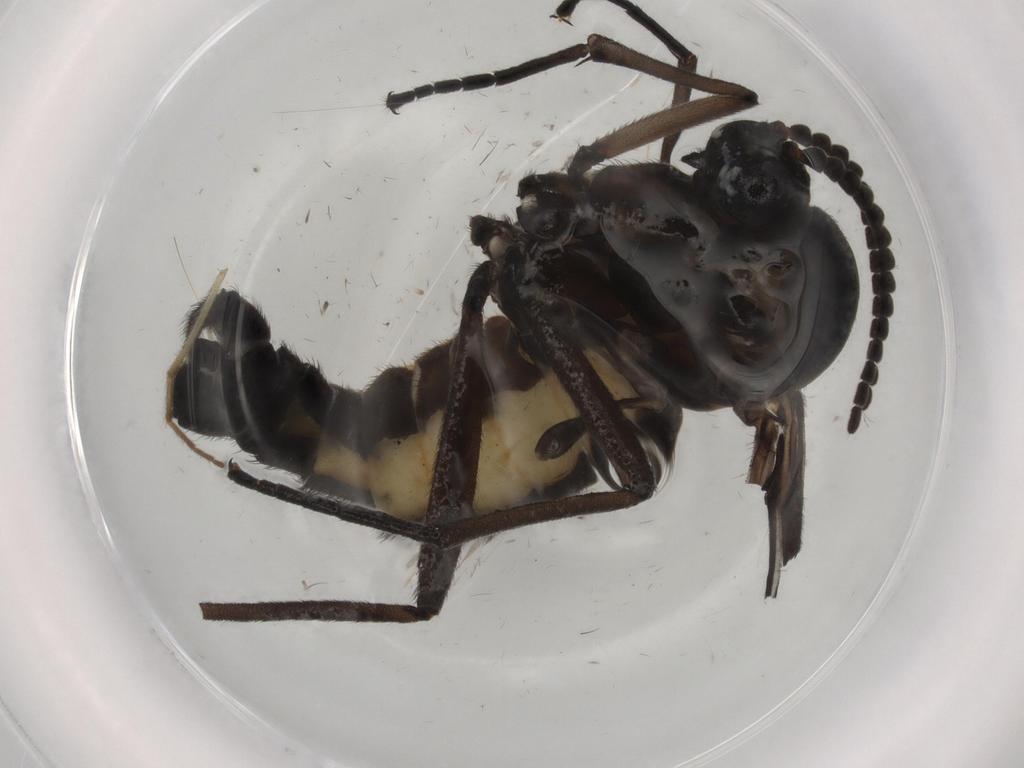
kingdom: Animalia
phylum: Arthropoda
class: Insecta
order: Diptera
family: Sciaridae
